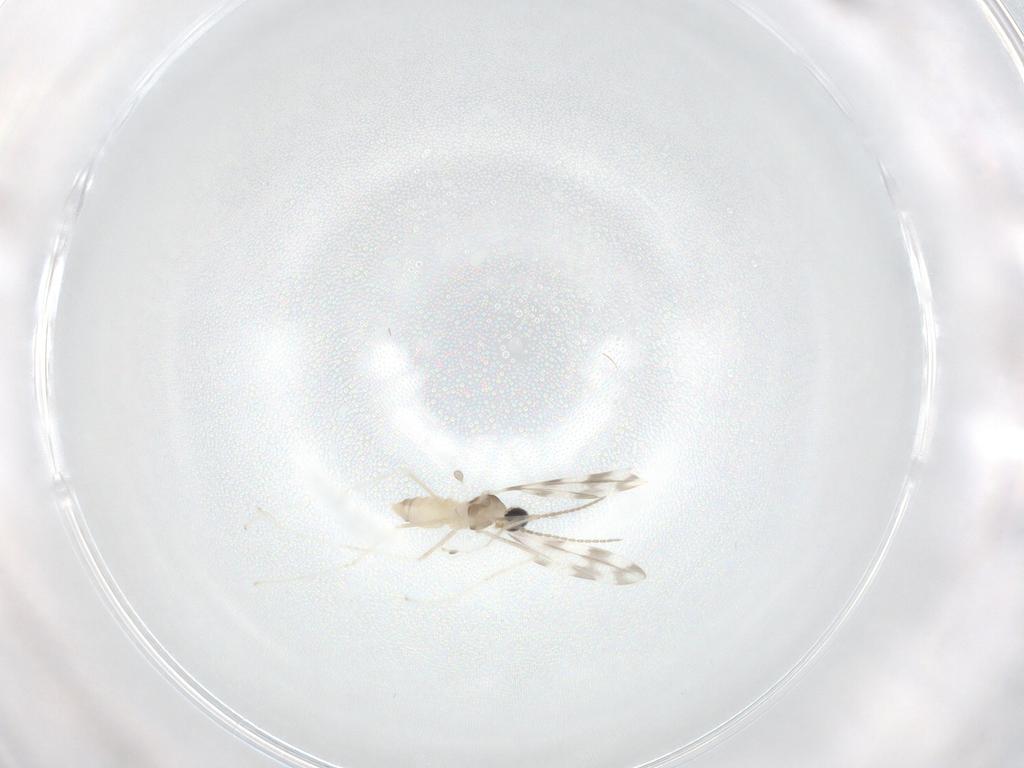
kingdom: Animalia
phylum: Arthropoda
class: Insecta
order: Diptera
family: Cecidomyiidae
